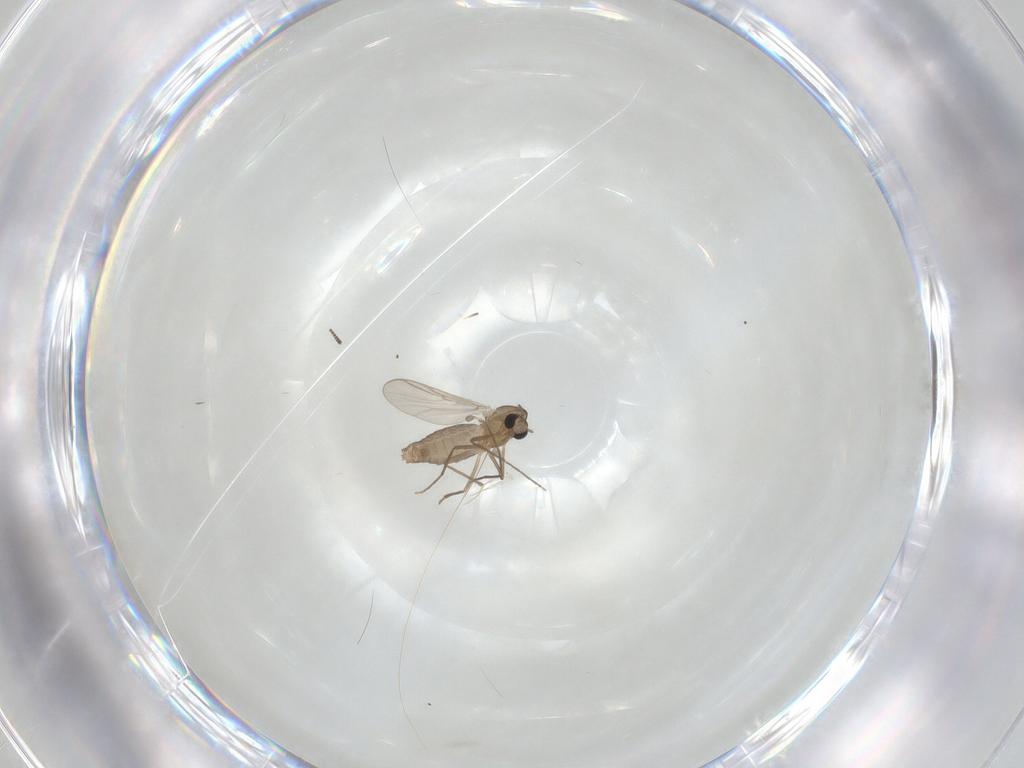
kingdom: Animalia
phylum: Arthropoda
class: Insecta
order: Diptera
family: Chironomidae
